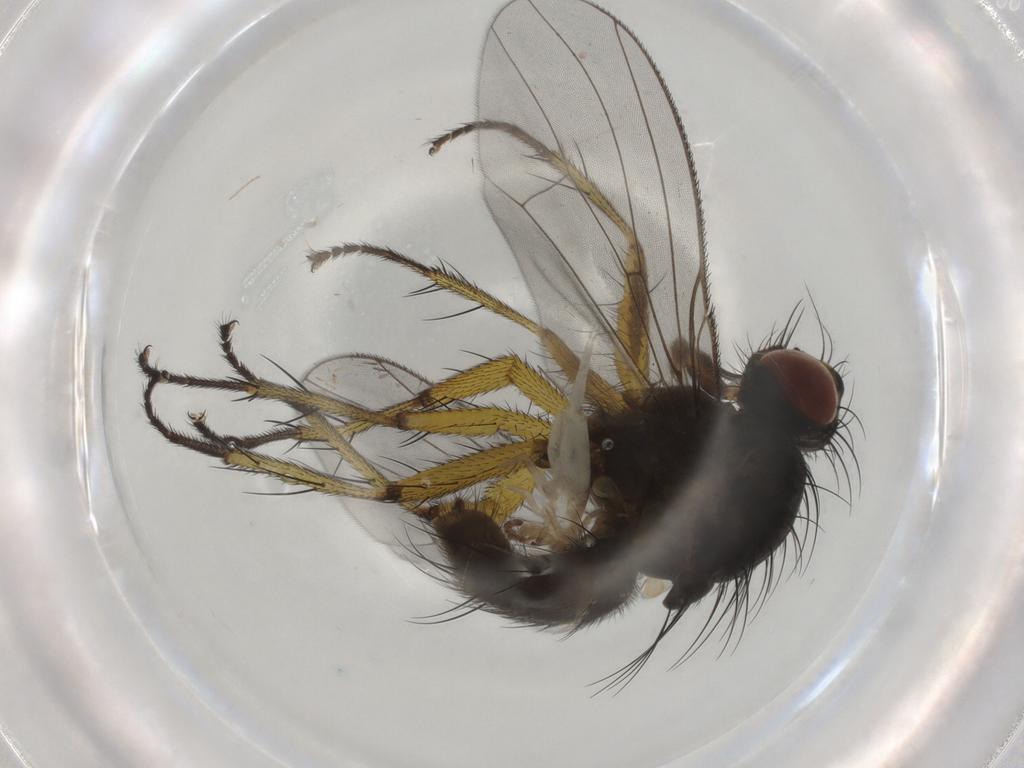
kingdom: Animalia
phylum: Arthropoda
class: Insecta
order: Diptera
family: Muscidae
